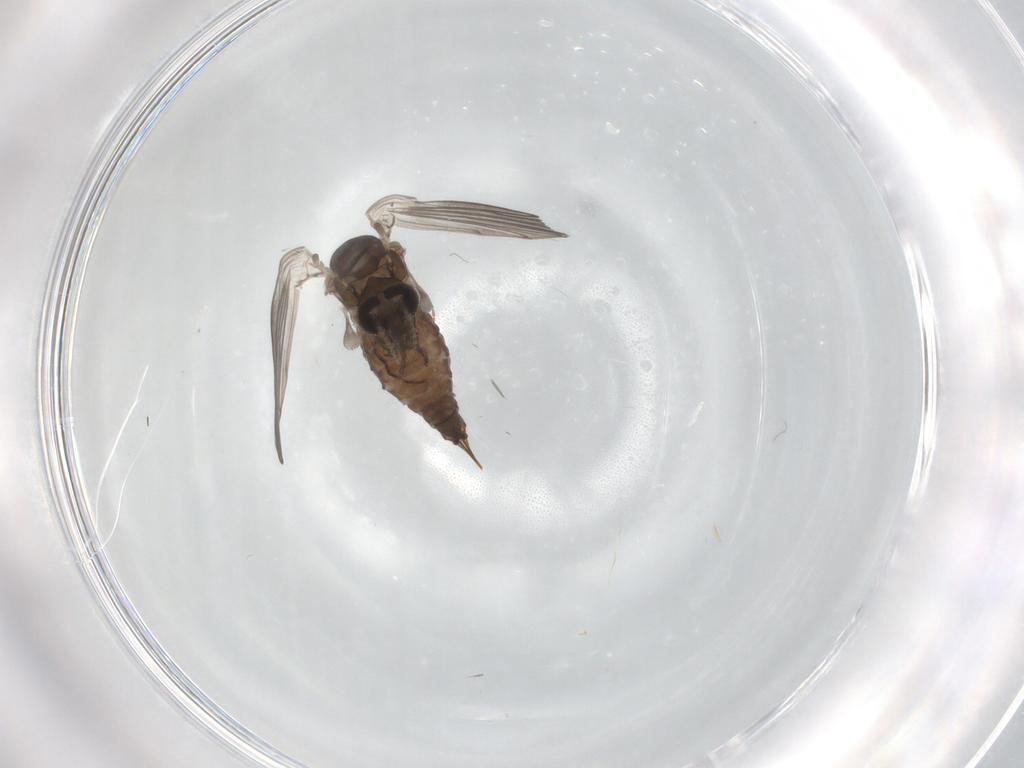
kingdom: Animalia
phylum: Arthropoda
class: Insecta
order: Diptera
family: Psychodidae
